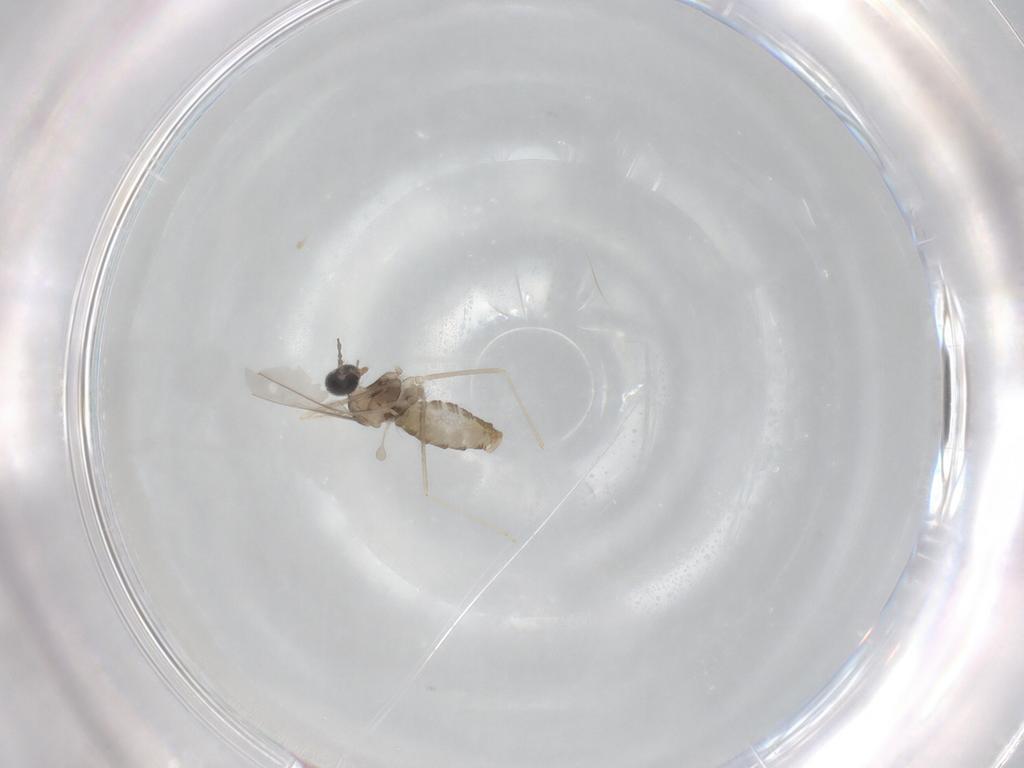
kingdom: Animalia
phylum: Arthropoda
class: Insecta
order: Diptera
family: Cecidomyiidae
